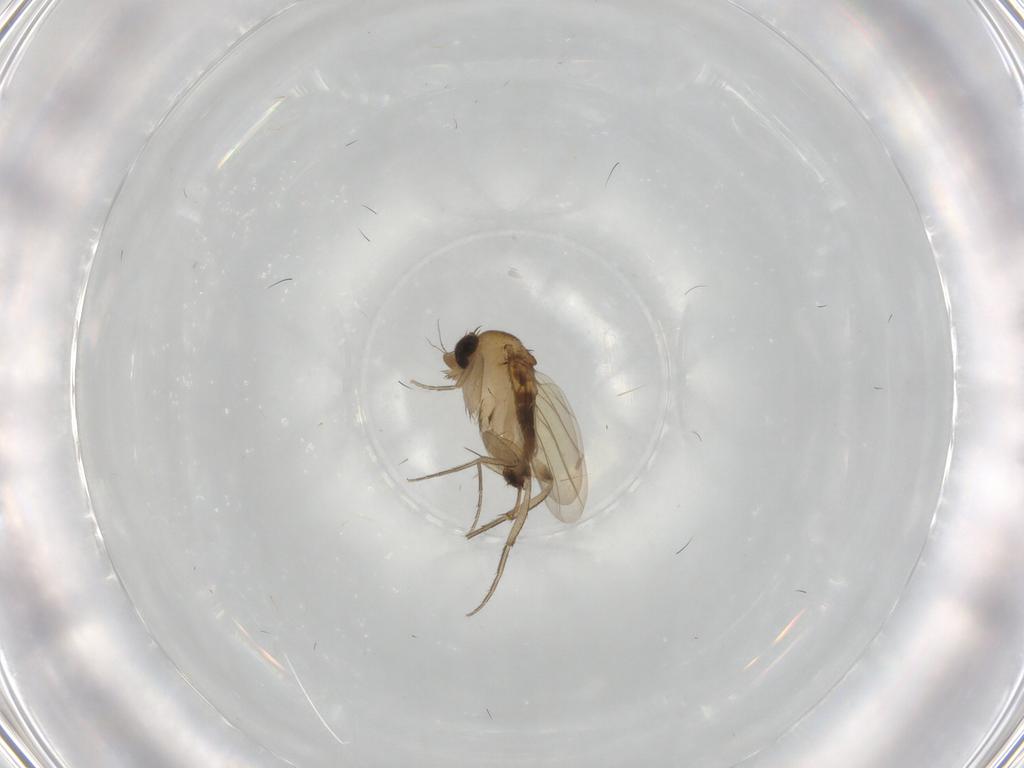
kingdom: Animalia
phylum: Arthropoda
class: Insecta
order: Diptera
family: Phoridae
